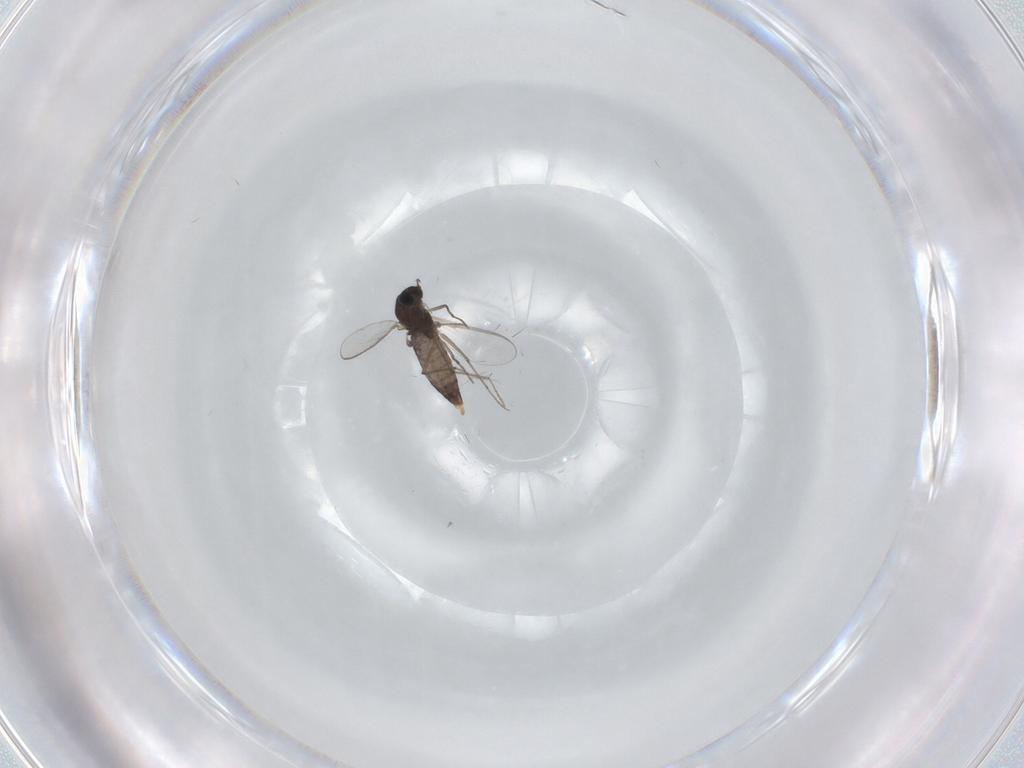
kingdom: Animalia
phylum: Arthropoda
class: Insecta
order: Diptera
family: Chironomidae
